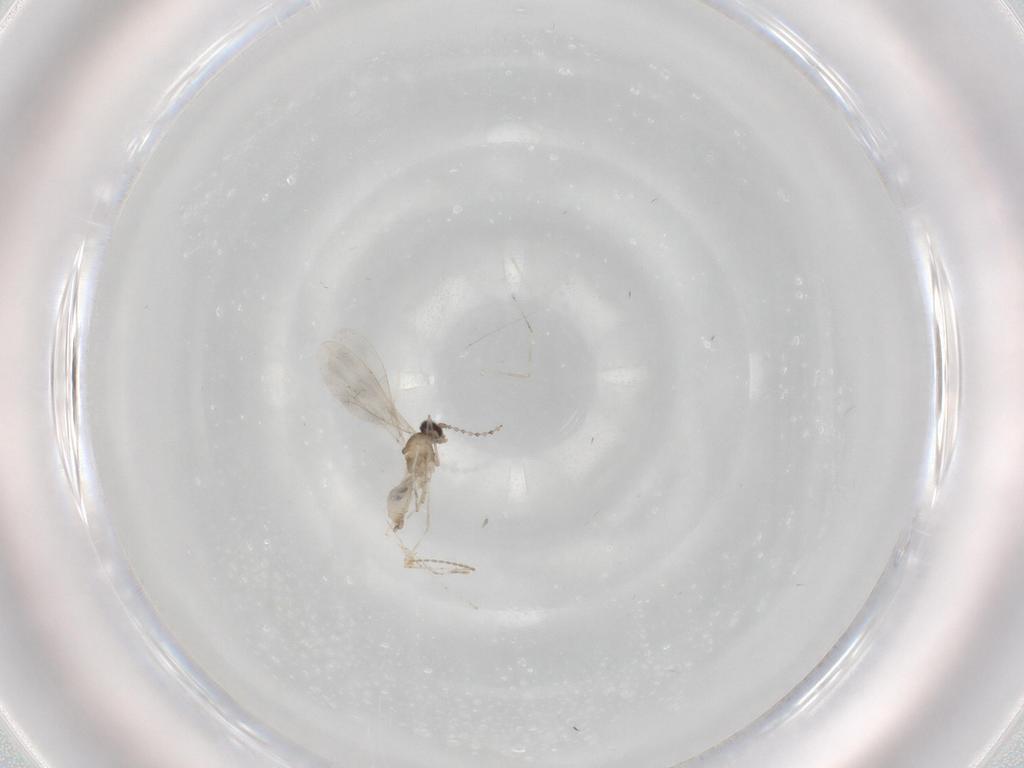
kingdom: Animalia
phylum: Arthropoda
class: Insecta
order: Diptera
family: Cecidomyiidae
